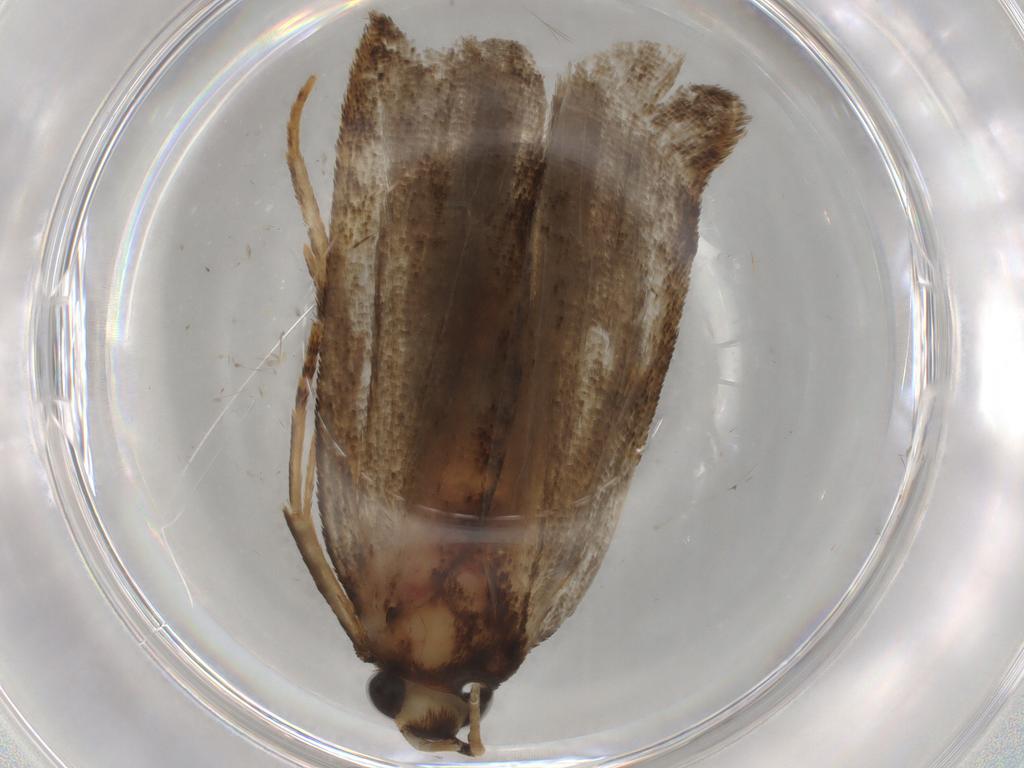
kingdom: Animalia
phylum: Arthropoda
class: Insecta
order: Lepidoptera
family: Autostichidae
